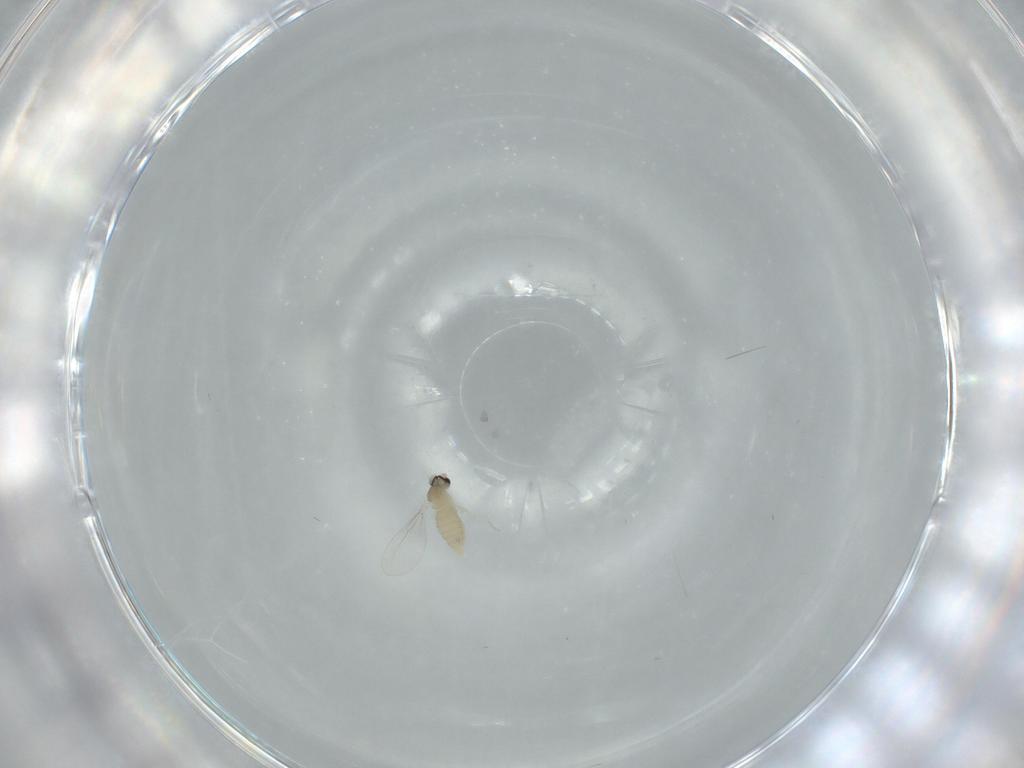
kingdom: Animalia
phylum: Arthropoda
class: Insecta
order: Diptera
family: Cecidomyiidae
